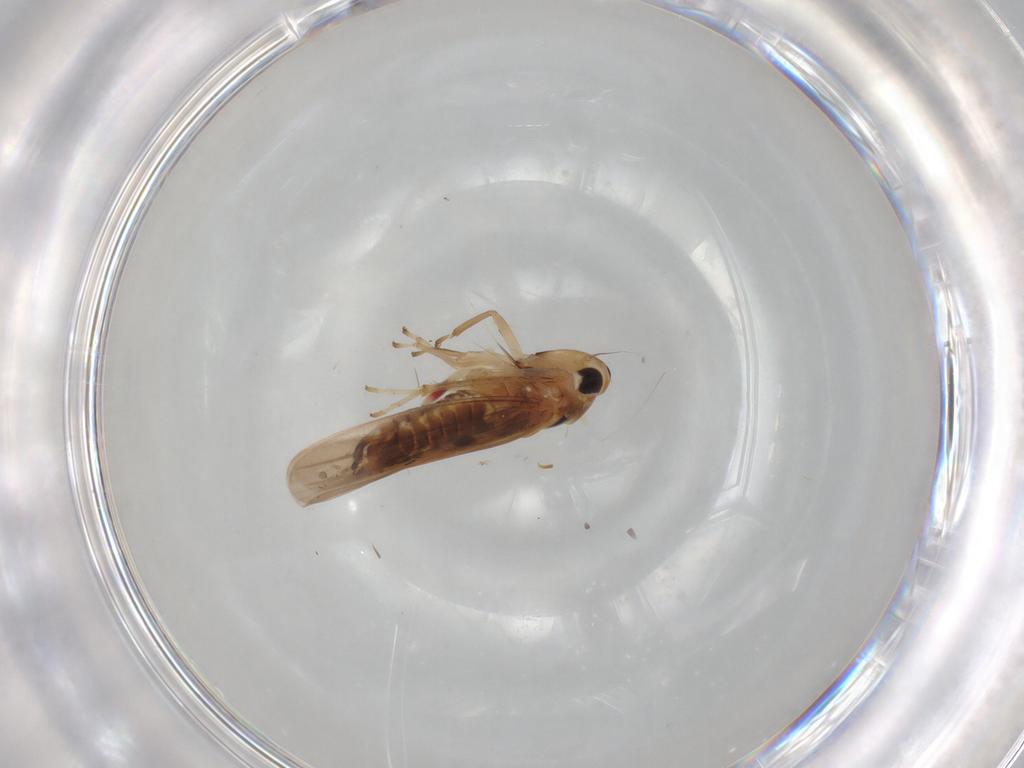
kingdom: Animalia
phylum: Arthropoda
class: Insecta
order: Hemiptera
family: Cicadellidae
